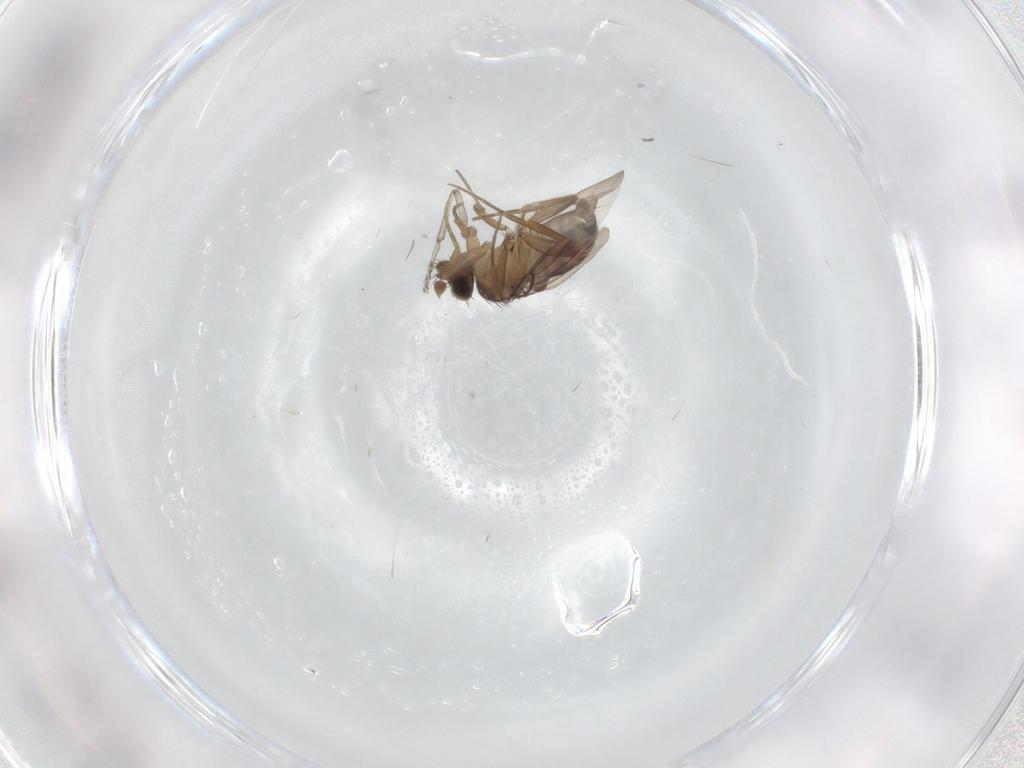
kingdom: Animalia
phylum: Arthropoda
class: Insecta
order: Diptera
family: Psychodidae
